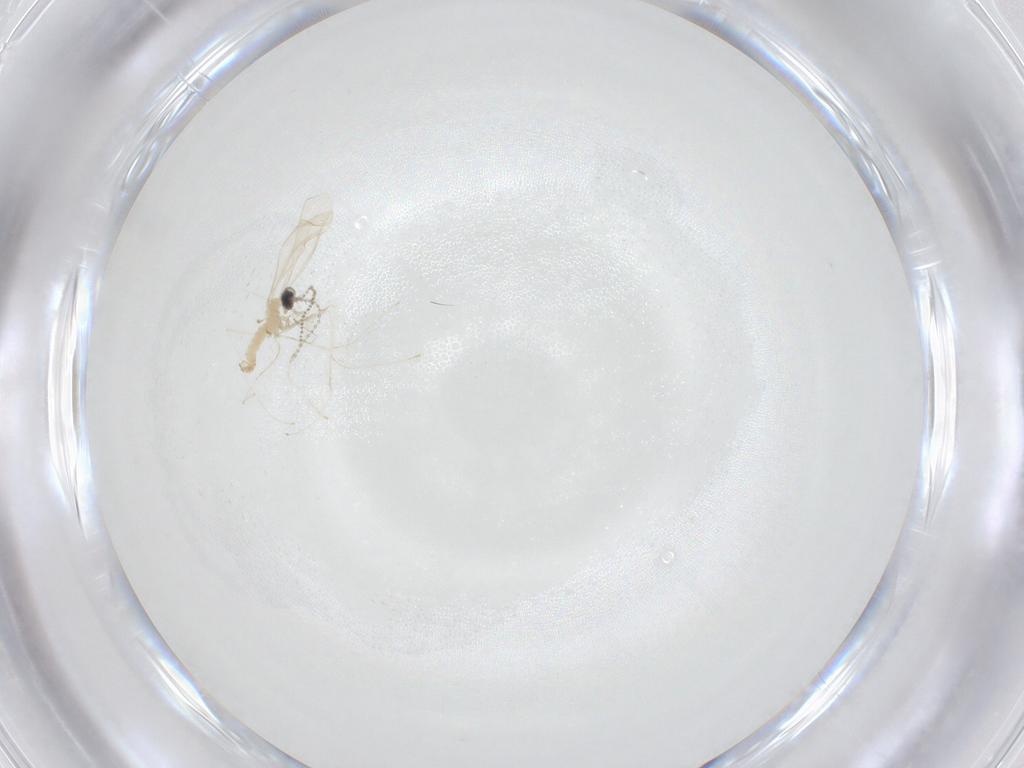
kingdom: Animalia
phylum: Arthropoda
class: Insecta
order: Diptera
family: Cecidomyiidae
